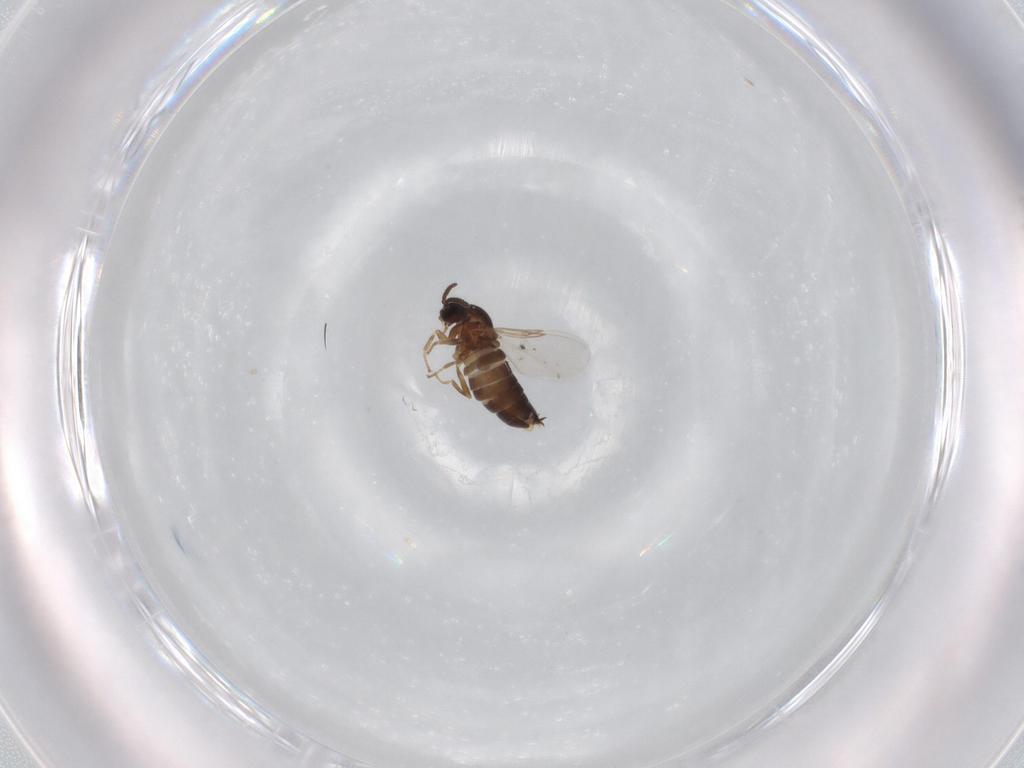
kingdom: Animalia
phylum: Arthropoda
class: Insecta
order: Diptera
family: Scatopsidae
